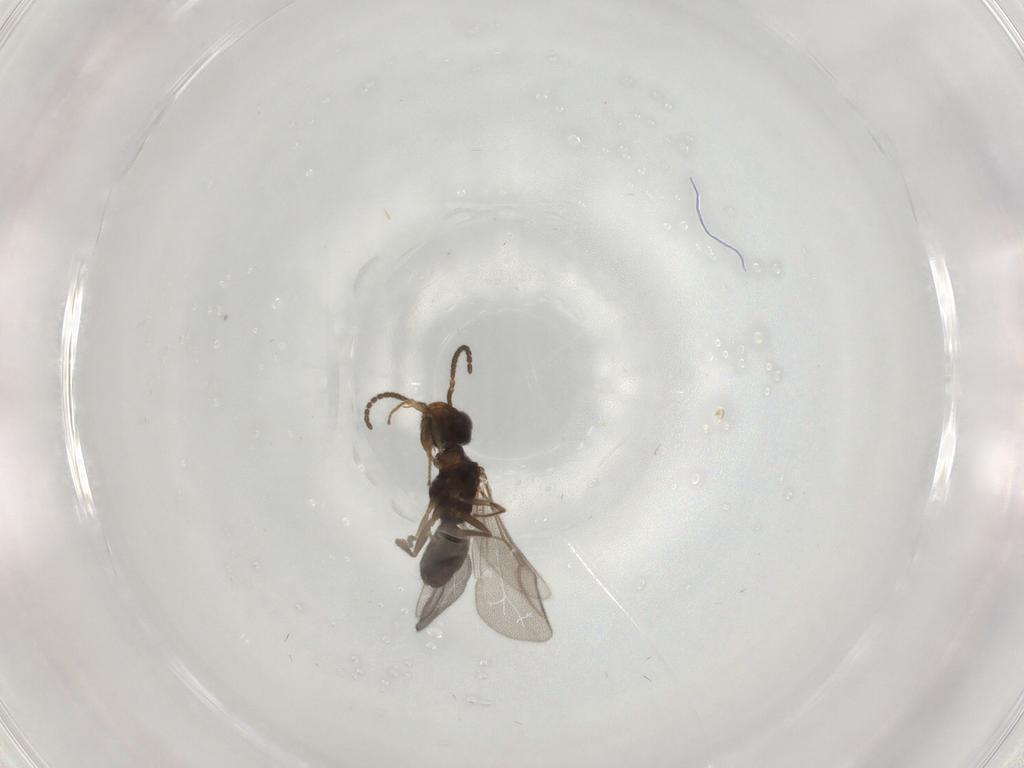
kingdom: Animalia
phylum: Arthropoda
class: Insecta
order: Hymenoptera
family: Bethylidae
